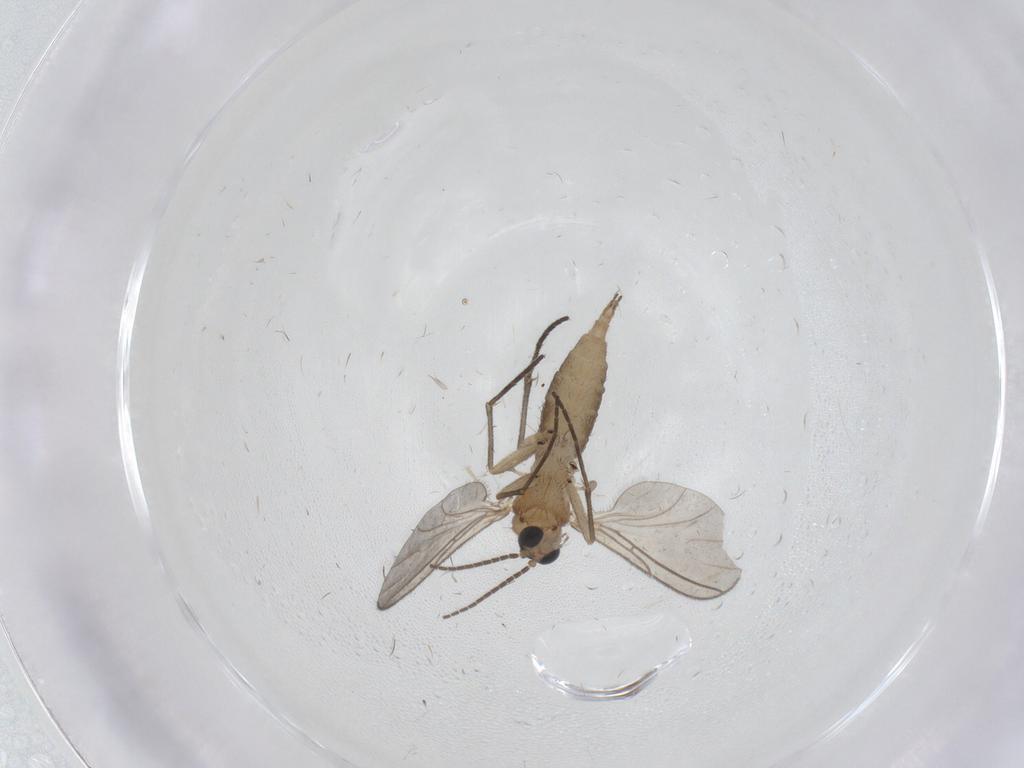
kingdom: Animalia
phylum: Arthropoda
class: Insecta
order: Diptera
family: Sciaridae
